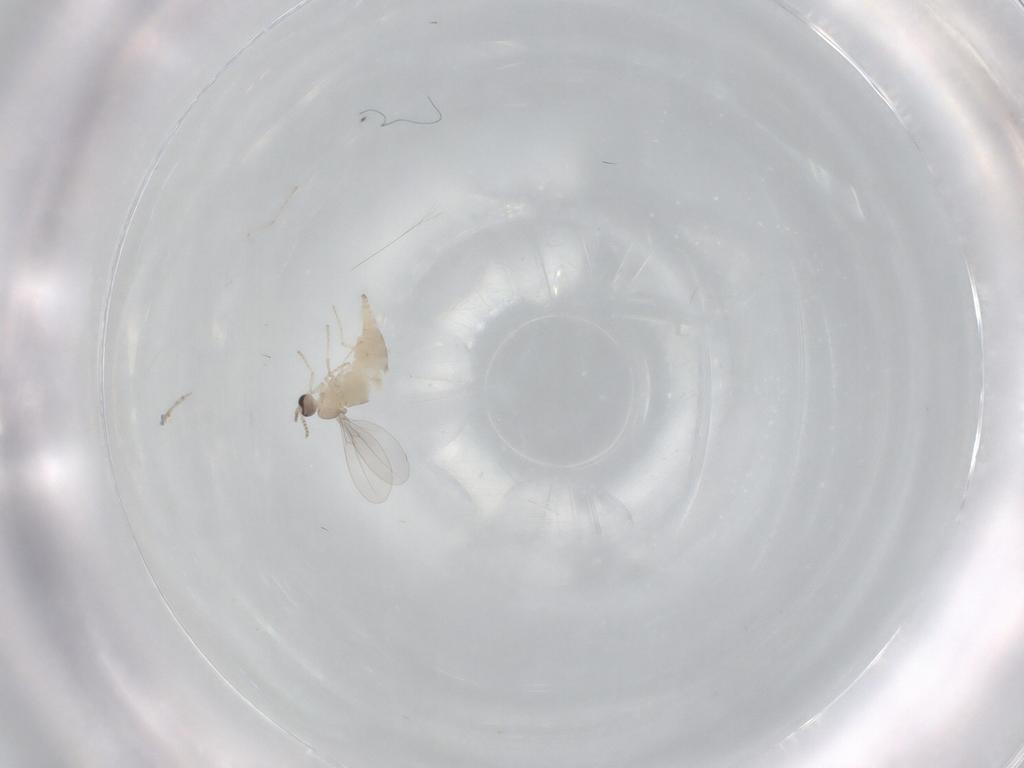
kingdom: Animalia
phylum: Arthropoda
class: Insecta
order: Diptera
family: Cecidomyiidae
